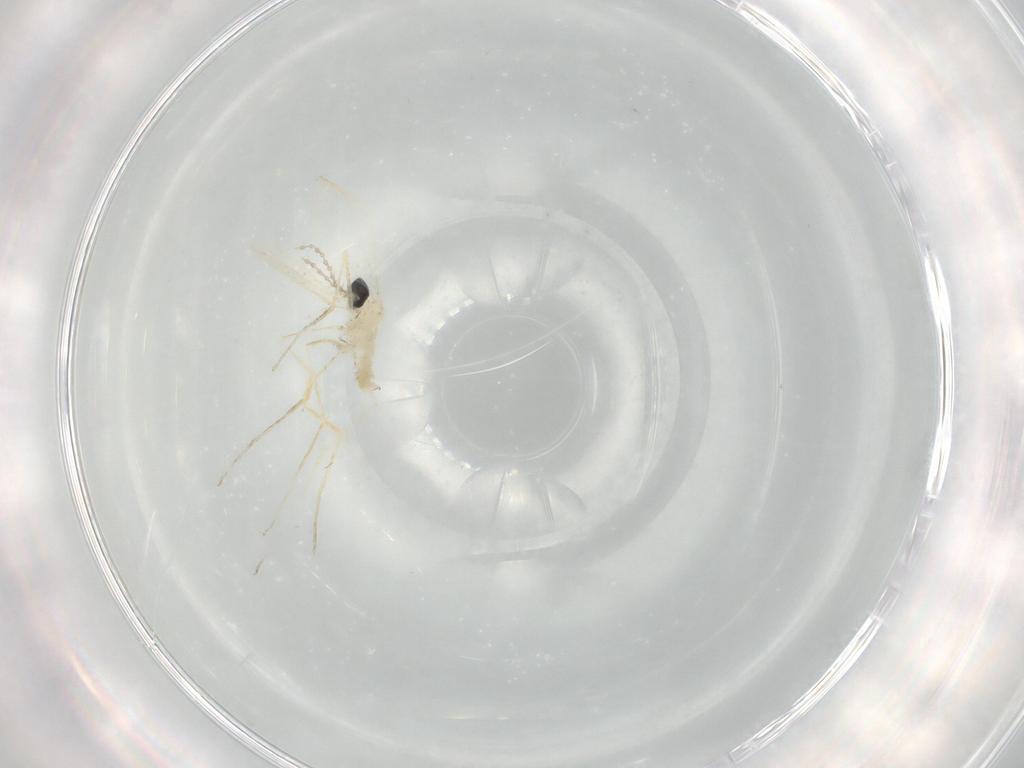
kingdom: Animalia
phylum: Arthropoda
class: Insecta
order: Diptera
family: Cecidomyiidae
